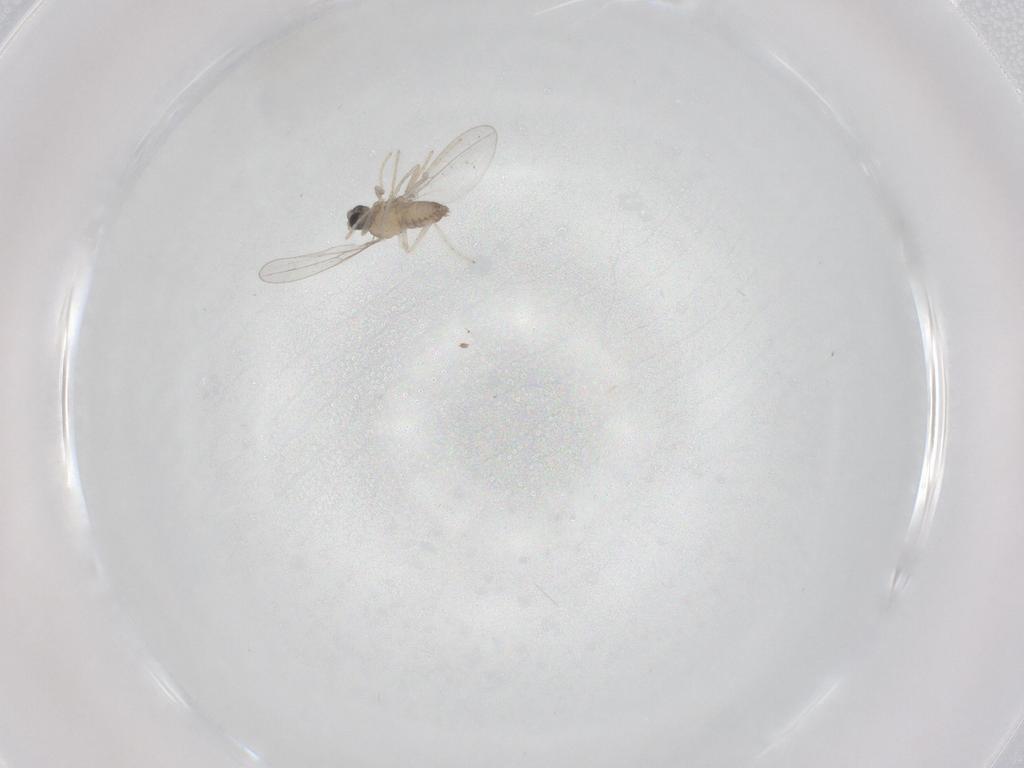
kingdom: Animalia
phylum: Arthropoda
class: Insecta
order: Diptera
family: Cecidomyiidae
